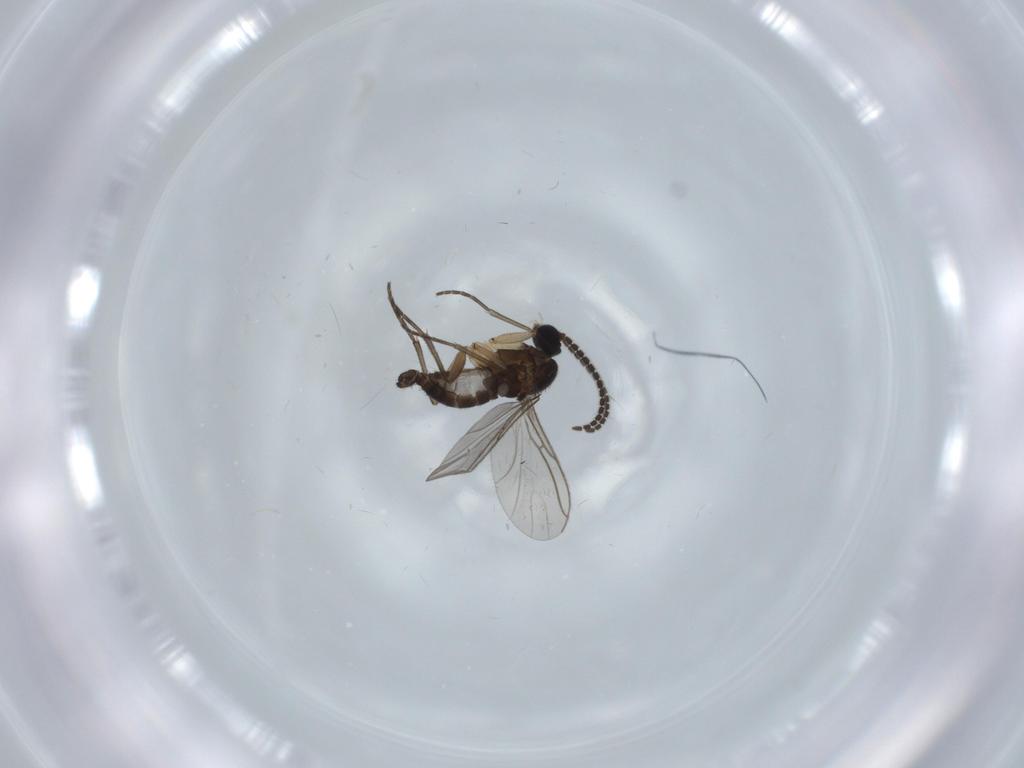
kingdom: Animalia
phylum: Arthropoda
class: Insecta
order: Diptera
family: Sciaridae
